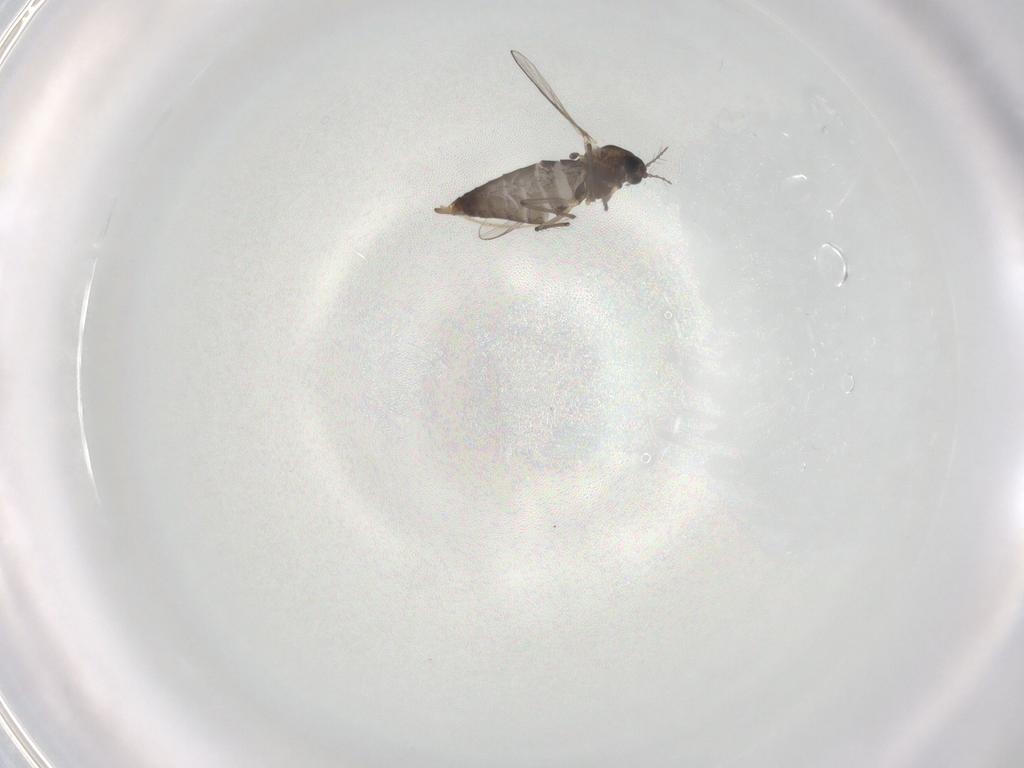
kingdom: Animalia
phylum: Arthropoda
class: Insecta
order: Diptera
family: Chironomidae
